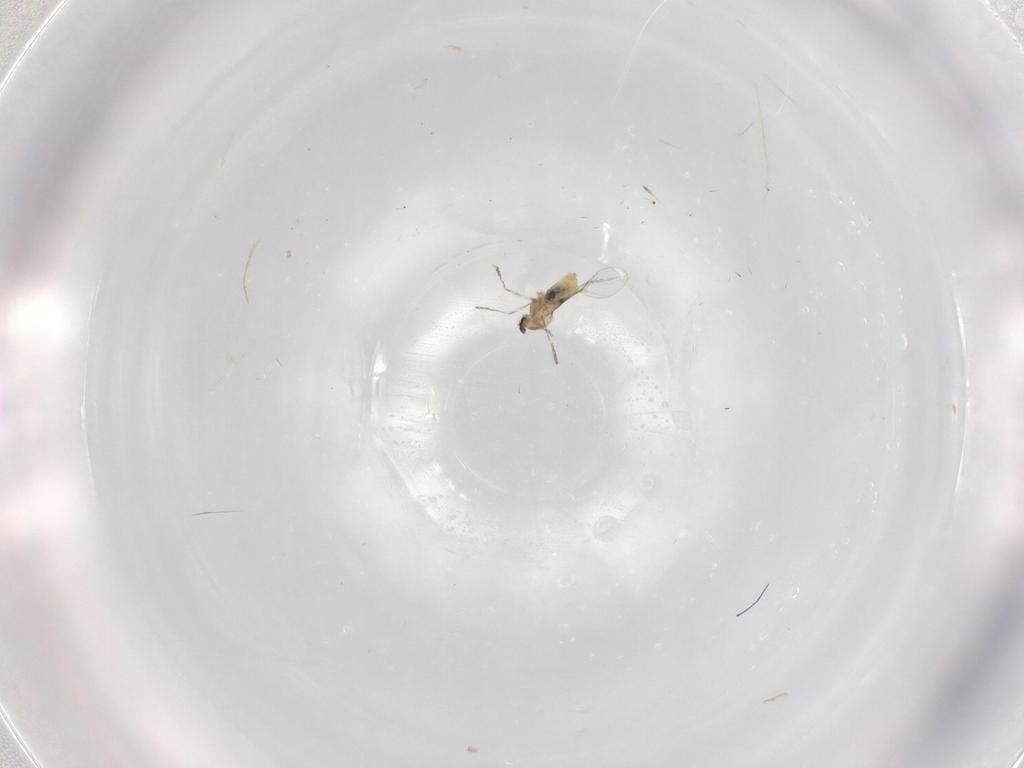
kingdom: Animalia
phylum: Arthropoda
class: Insecta
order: Diptera
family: Cecidomyiidae
